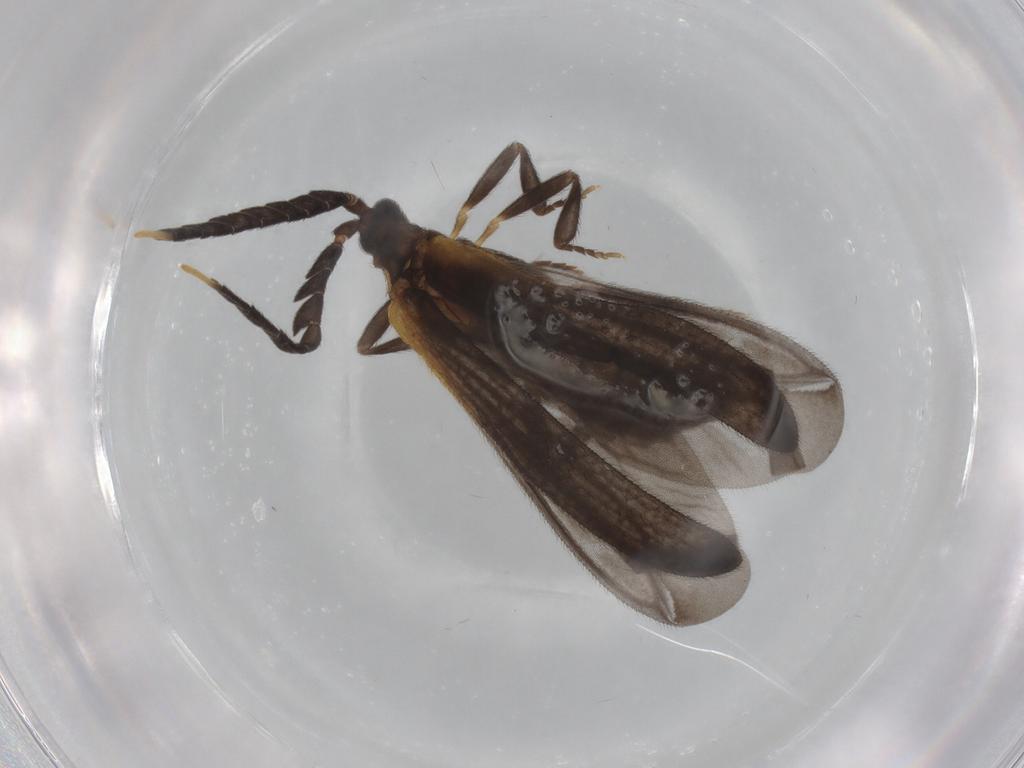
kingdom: Animalia
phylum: Arthropoda
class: Insecta
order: Coleoptera
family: Lycidae
